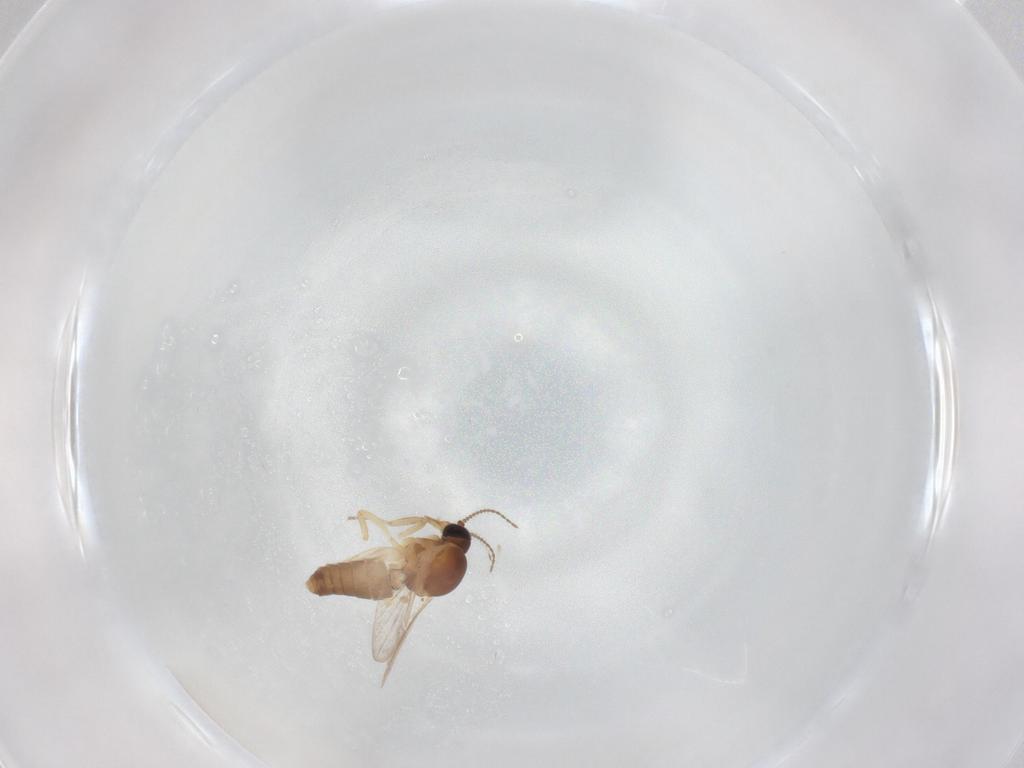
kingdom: Animalia
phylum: Arthropoda
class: Insecta
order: Diptera
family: Ceratopogonidae
